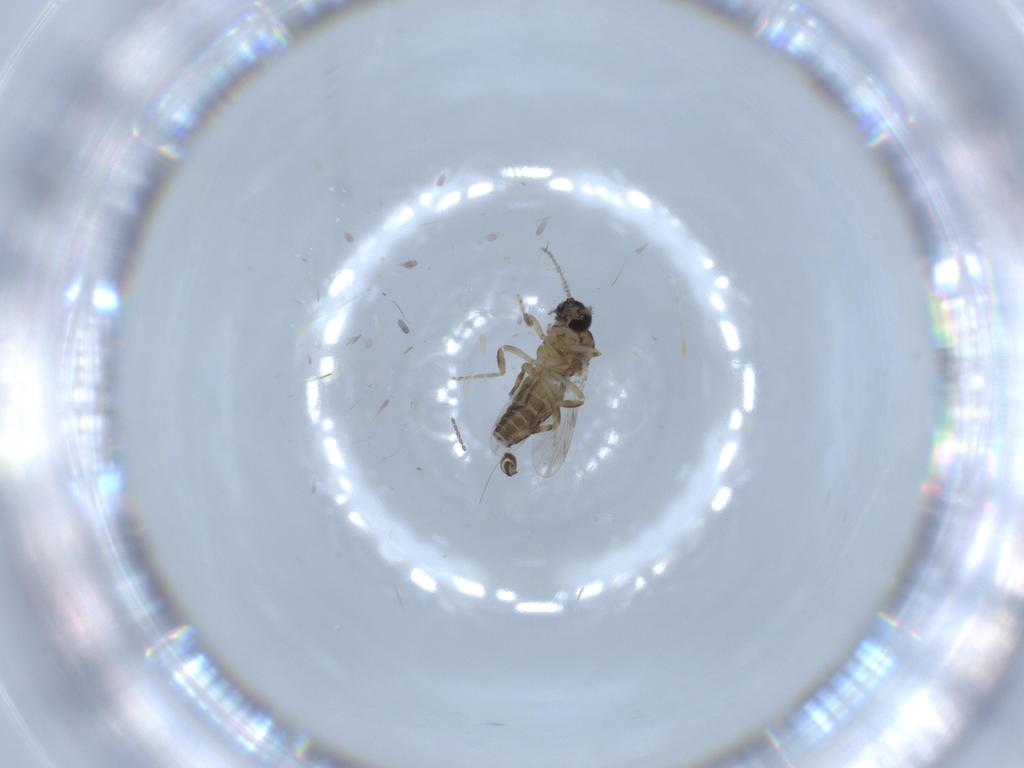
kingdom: Animalia
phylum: Arthropoda
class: Insecta
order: Diptera
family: Ceratopogonidae
